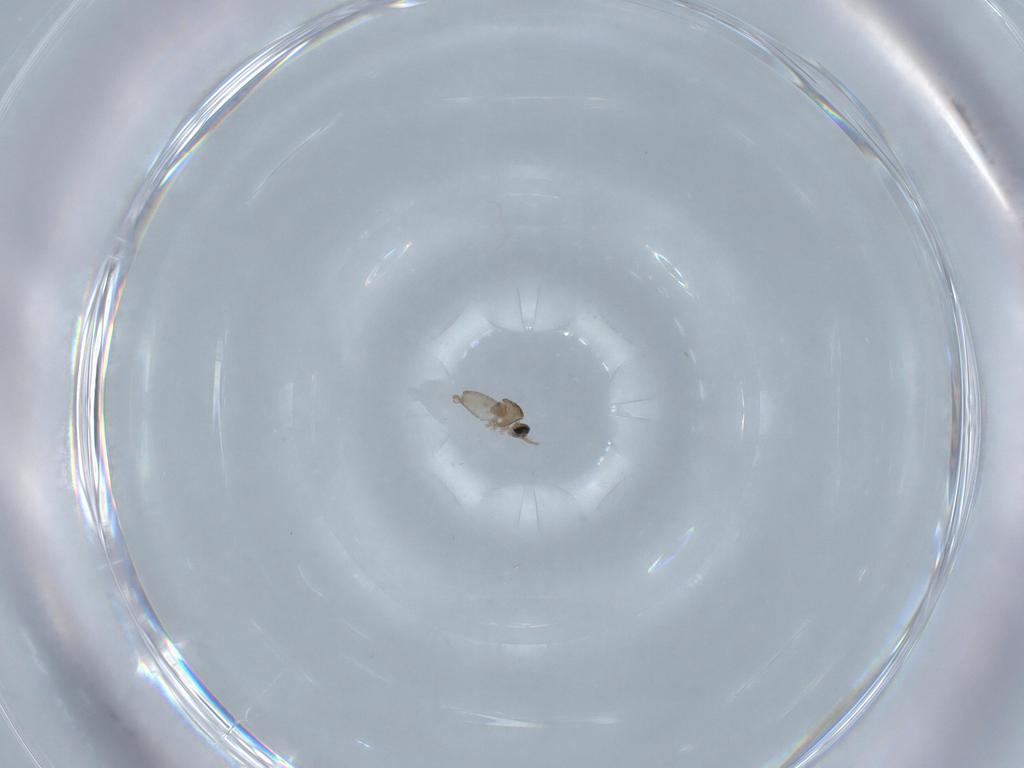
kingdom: Animalia
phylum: Arthropoda
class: Insecta
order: Diptera
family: Cecidomyiidae
